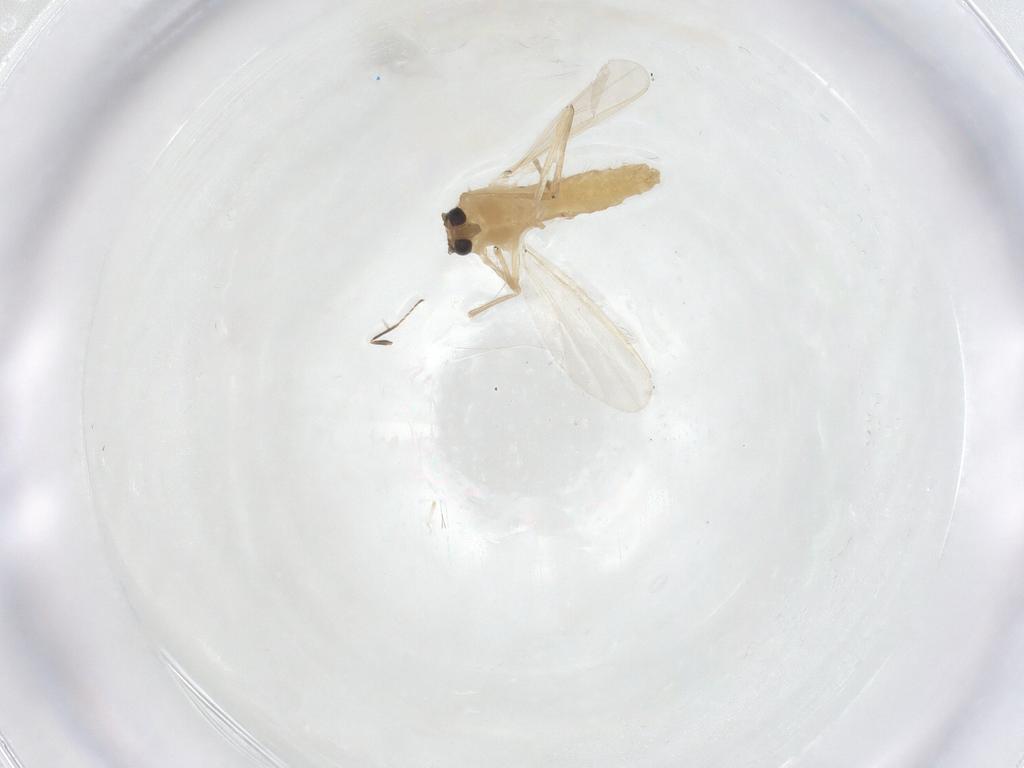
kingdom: Animalia
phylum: Arthropoda
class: Insecta
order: Diptera
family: Chironomidae
